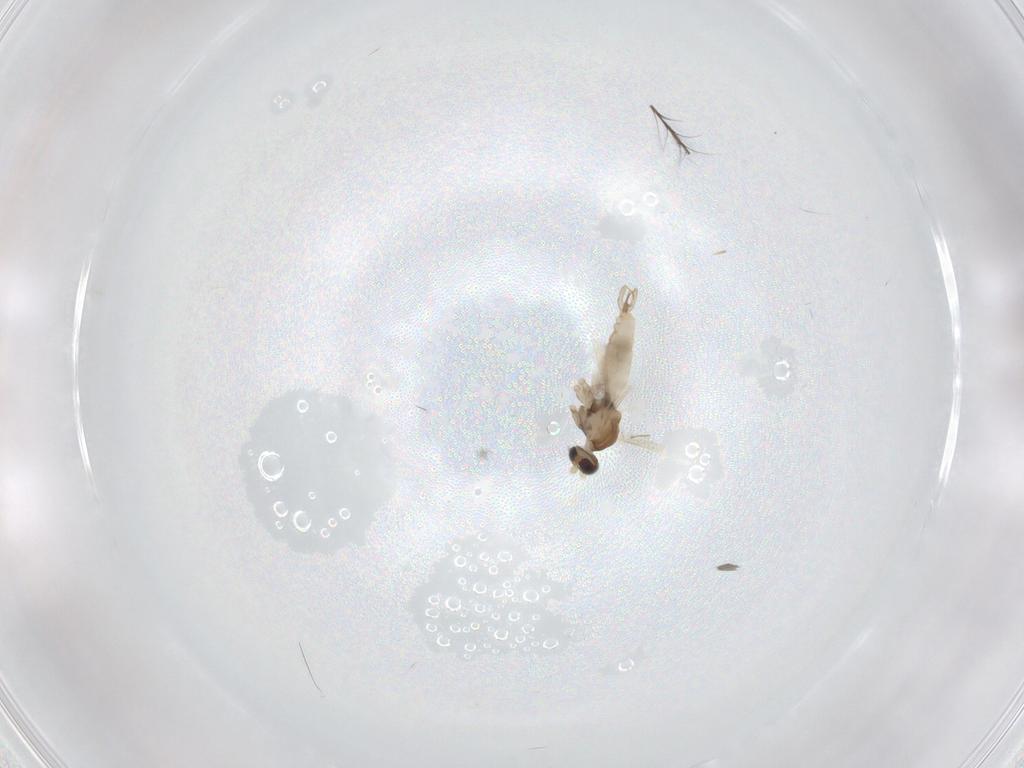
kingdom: Animalia
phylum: Arthropoda
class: Insecta
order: Diptera
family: Cecidomyiidae
